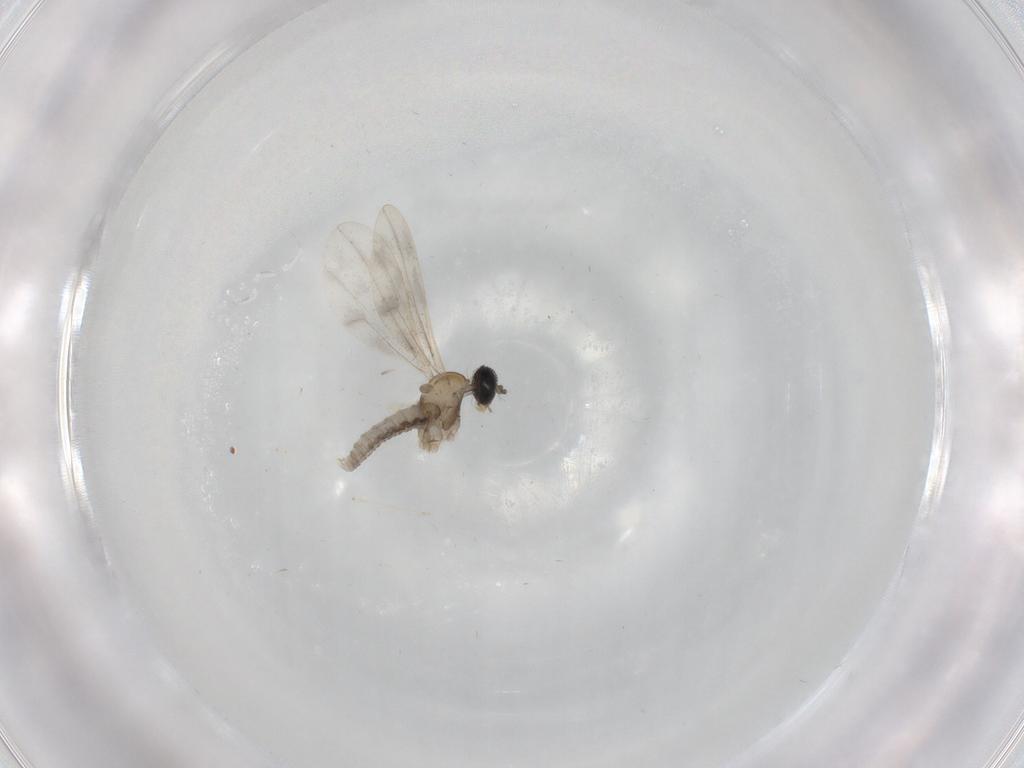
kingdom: Animalia
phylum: Arthropoda
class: Insecta
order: Diptera
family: Cecidomyiidae
